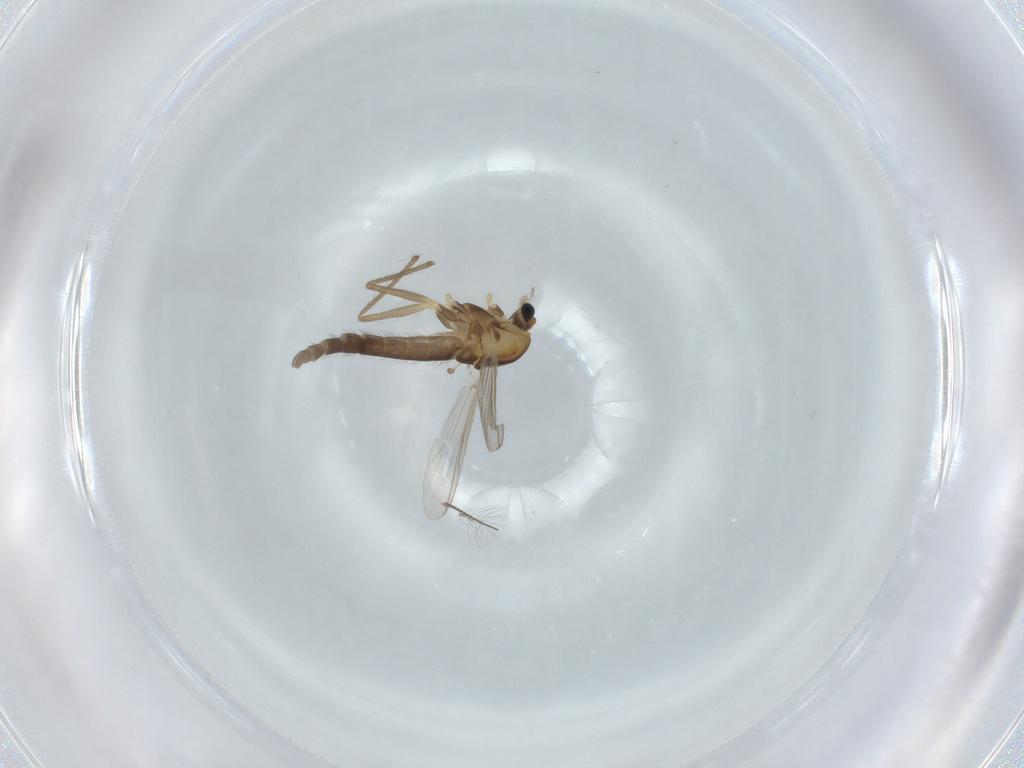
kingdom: Animalia
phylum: Arthropoda
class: Insecta
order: Diptera
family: Chironomidae
